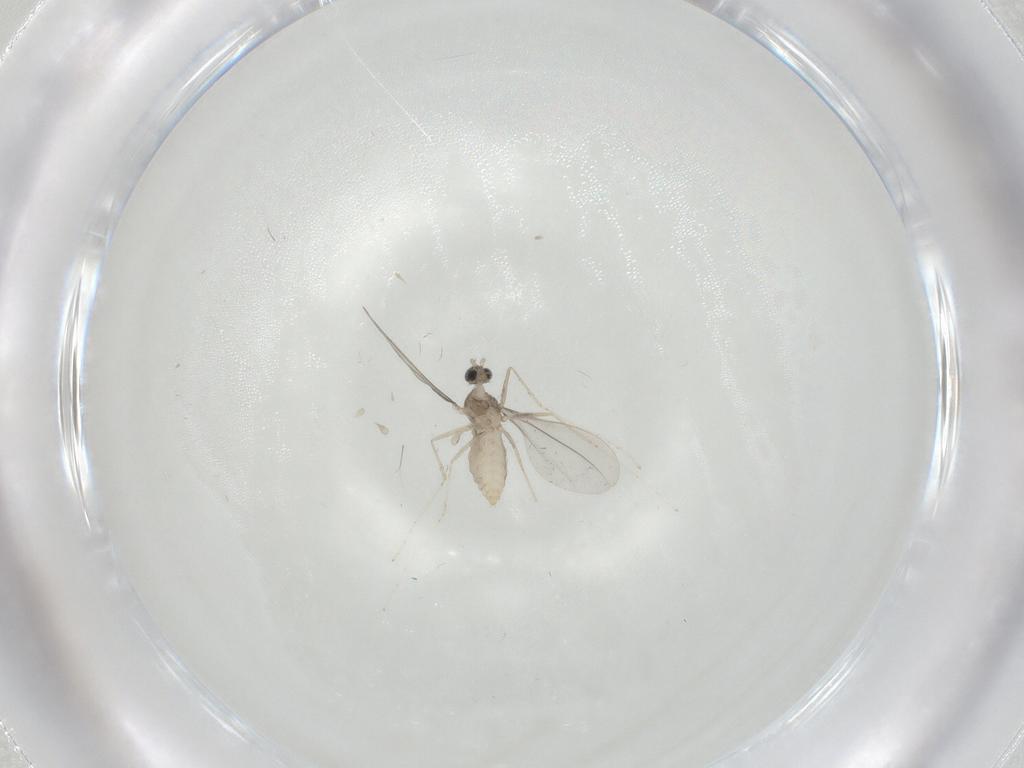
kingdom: Animalia
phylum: Arthropoda
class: Insecta
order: Diptera
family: Cecidomyiidae
